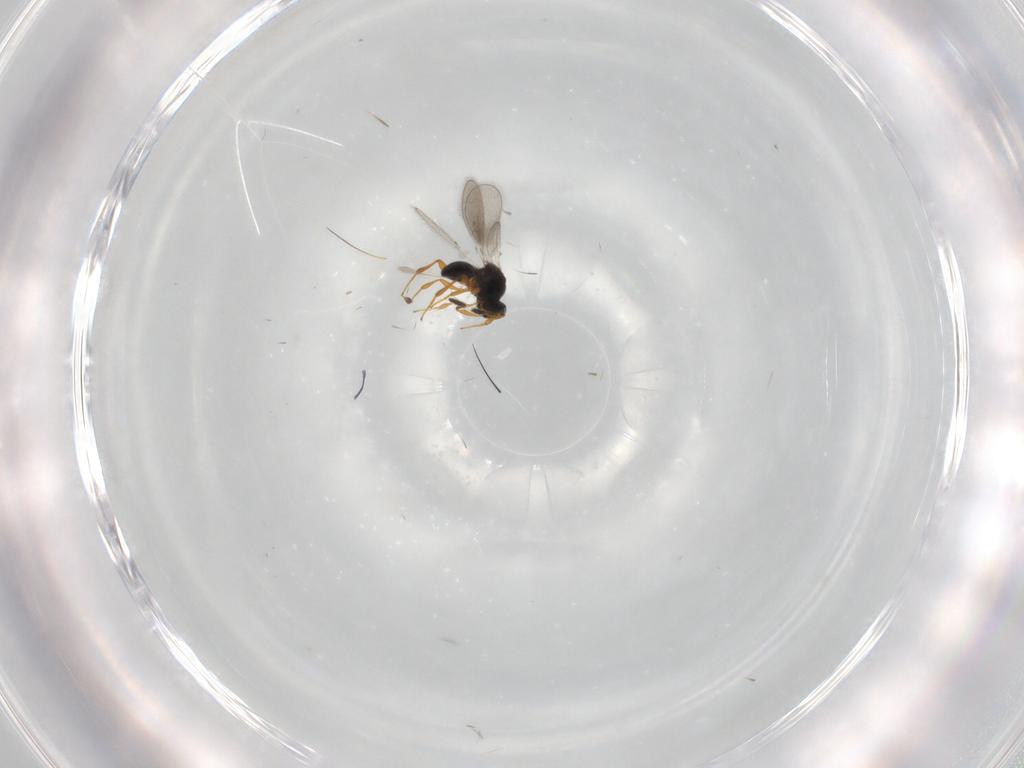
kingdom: Animalia
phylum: Arthropoda
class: Insecta
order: Hymenoptera
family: Platygastridae
